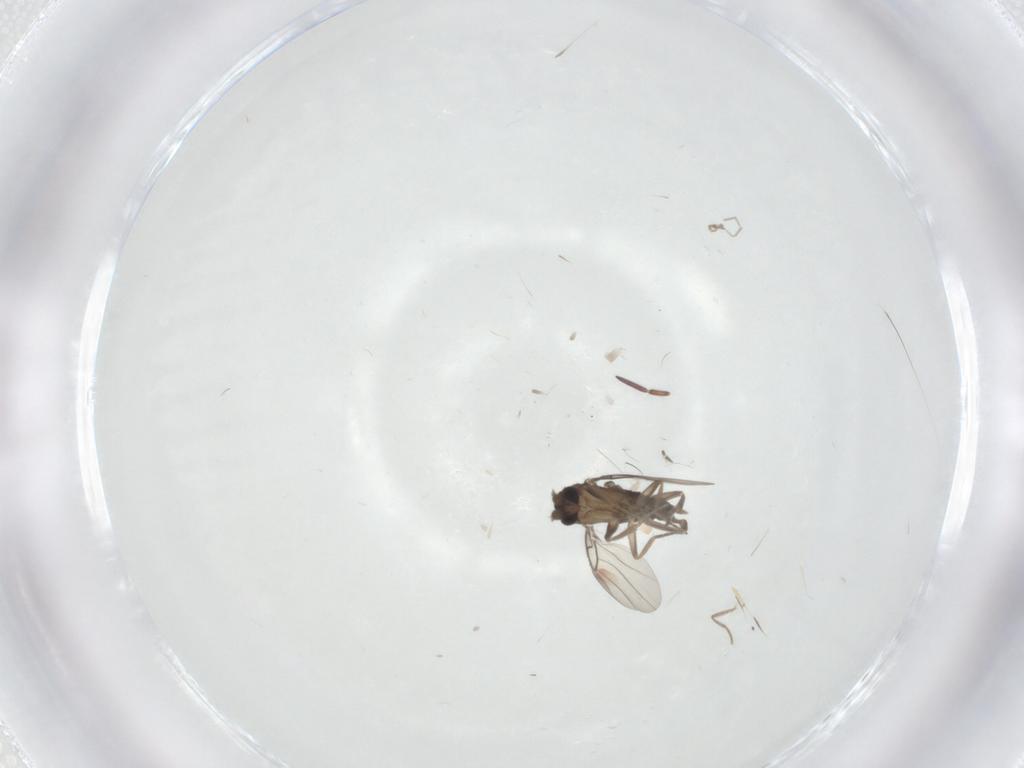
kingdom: Animalia
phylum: Arthropoda
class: Insecta
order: Diptera
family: Phoridae
